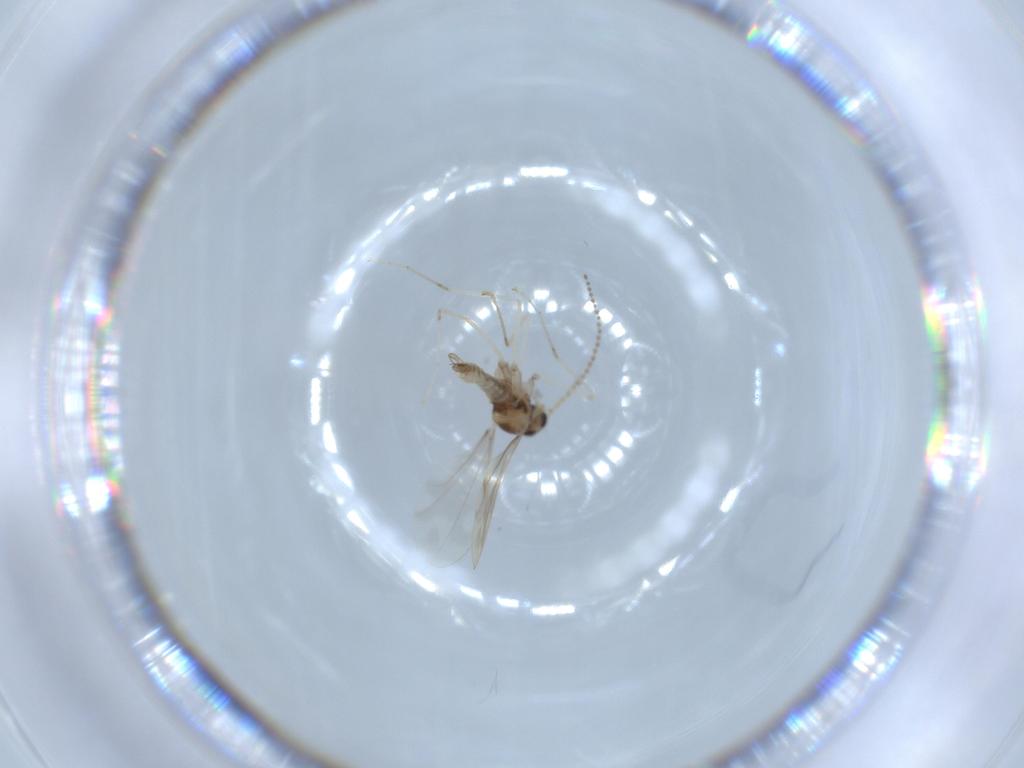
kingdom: Animalia
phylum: Arthropoda
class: Insecta
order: Diptera
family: Cecidomyiidae
